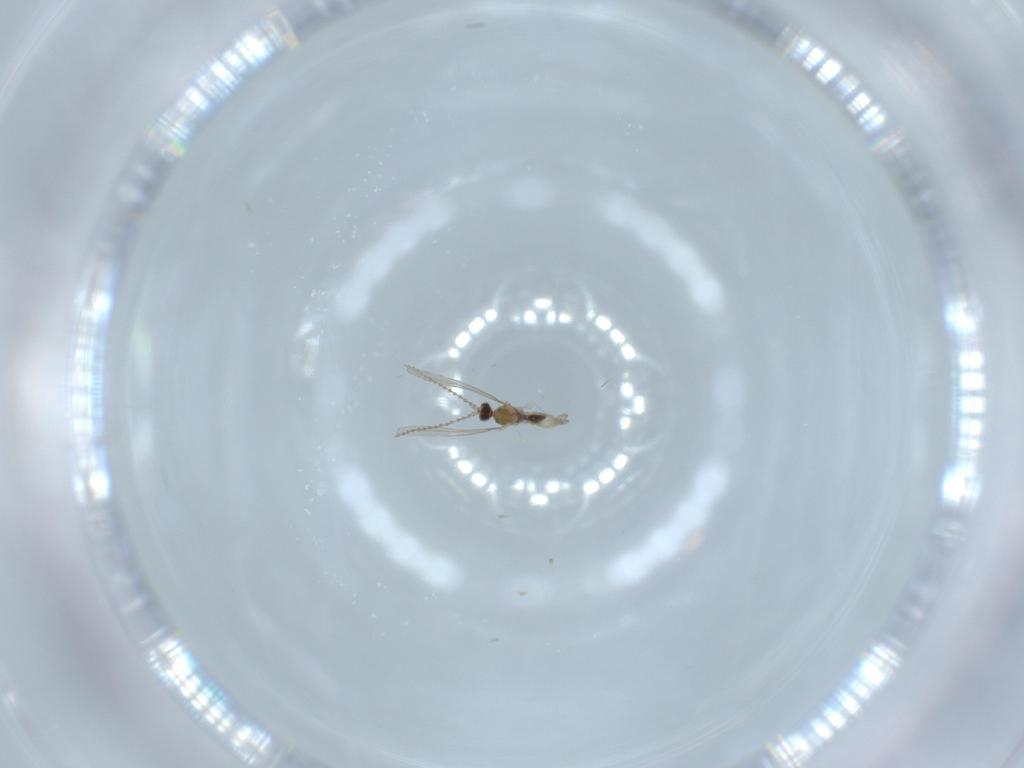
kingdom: Animalia
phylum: Arthropoda
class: Insecta
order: Diptera
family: Cecidomyiidae
